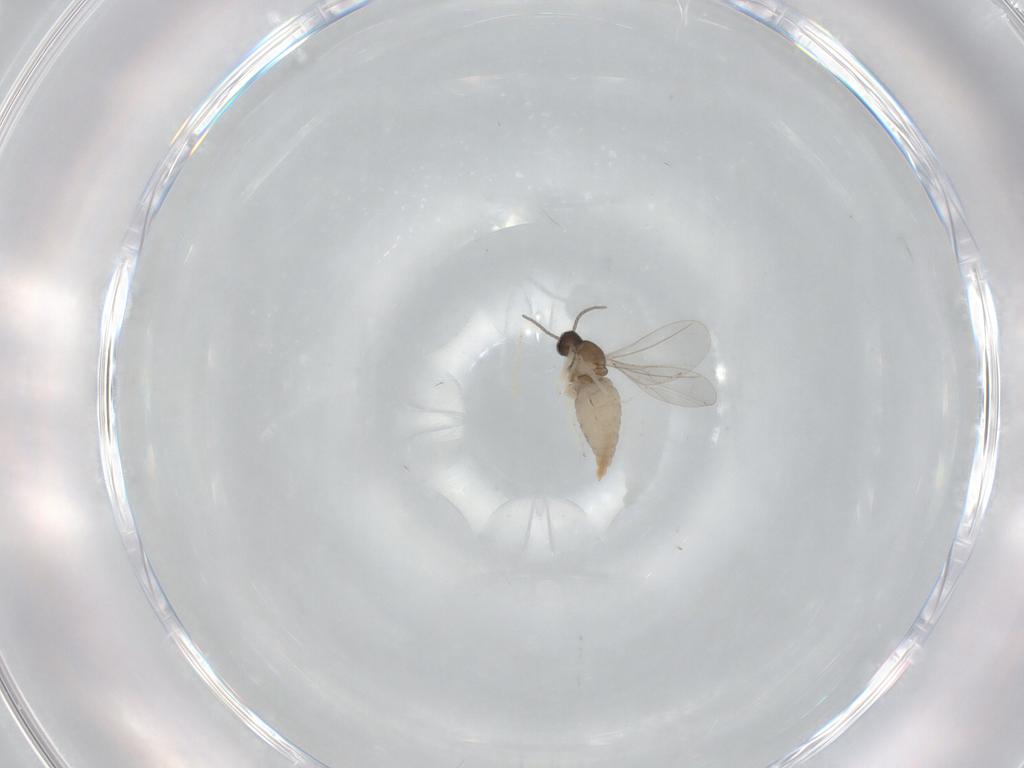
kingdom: Animalia
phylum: Arthropoda
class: Insecta
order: Diptera
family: Cecidomyiidae
